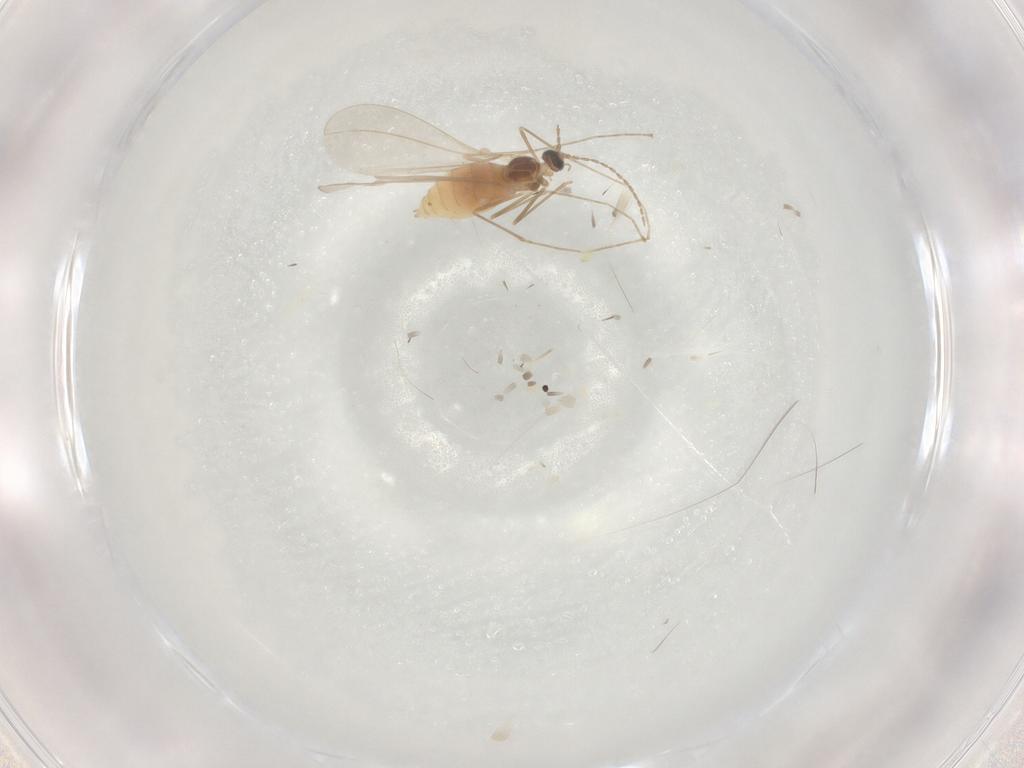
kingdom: Animalia
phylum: Arthropoda
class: Insecta
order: Diptera
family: Cecidomyiidae
